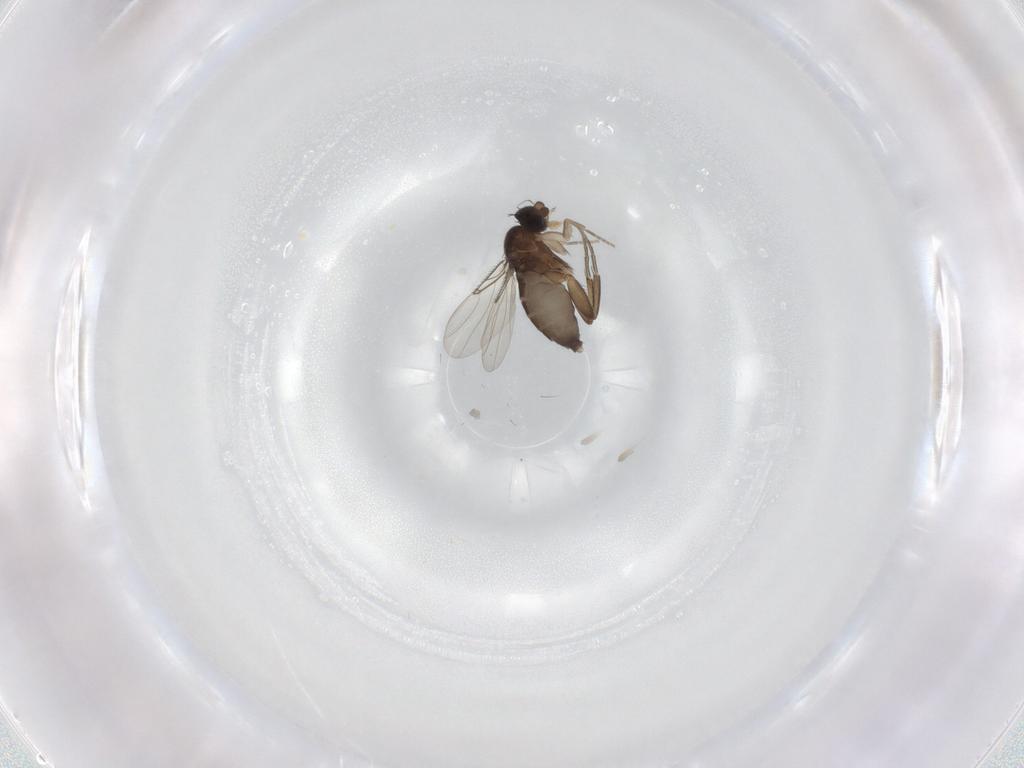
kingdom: Animalia
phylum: Arthropoda
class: Insecta
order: Diptera
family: Phoridae
